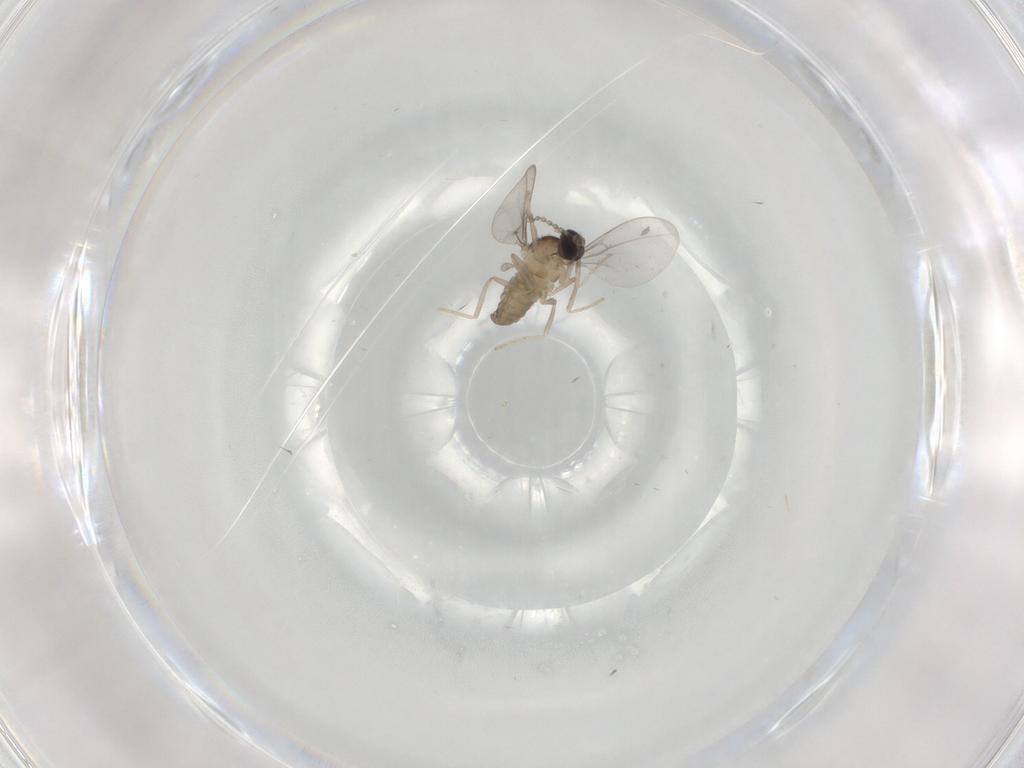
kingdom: Animalia
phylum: Arthropoda
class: Insecta
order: Diptera
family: Cecidomyiidae
